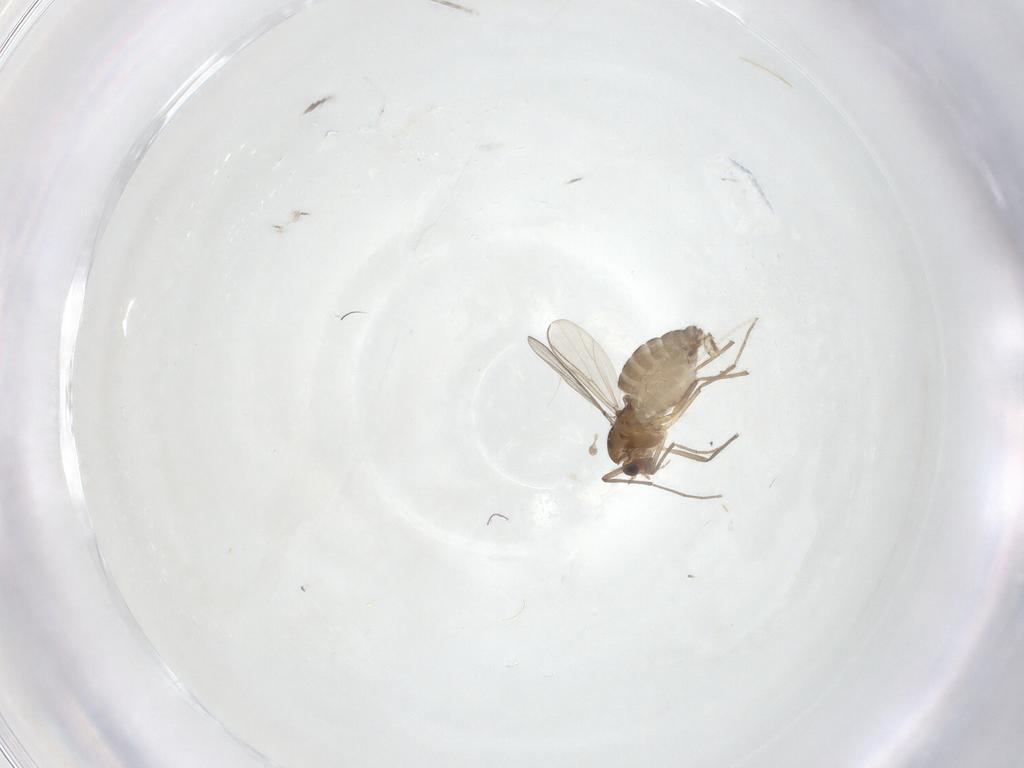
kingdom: Animalia
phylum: Arthropoda
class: Insecta
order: Diptera
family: Chironomidae
